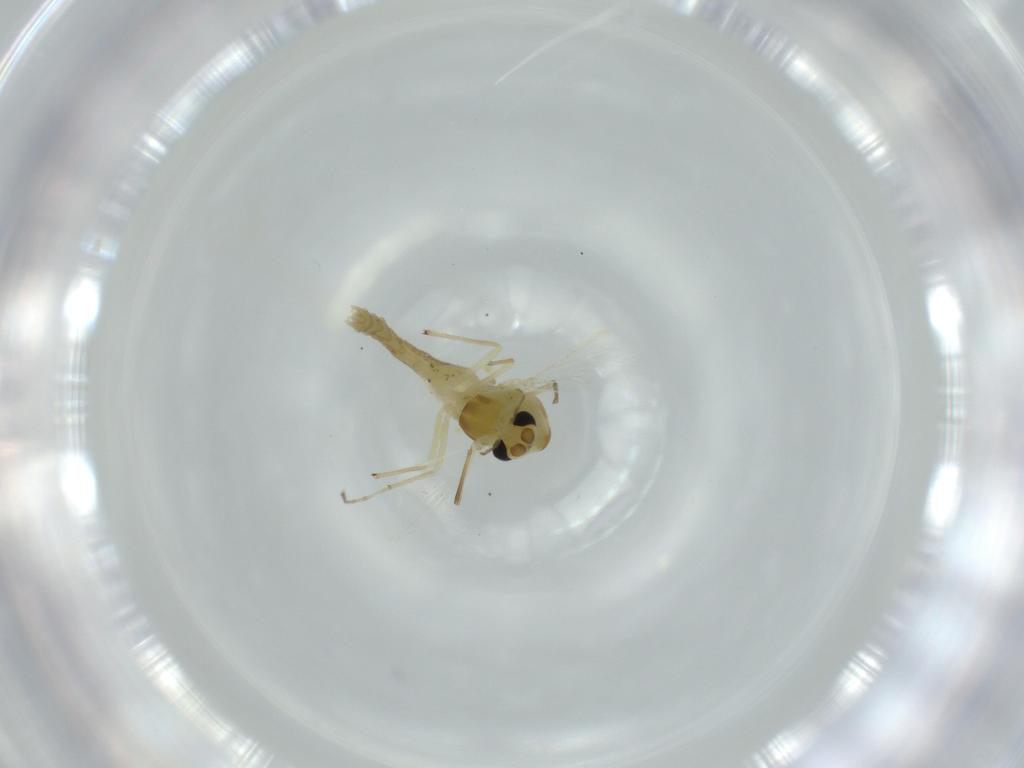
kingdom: Animalia
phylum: Arthropoda
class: Insecta
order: Diptera
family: Chironomidae
